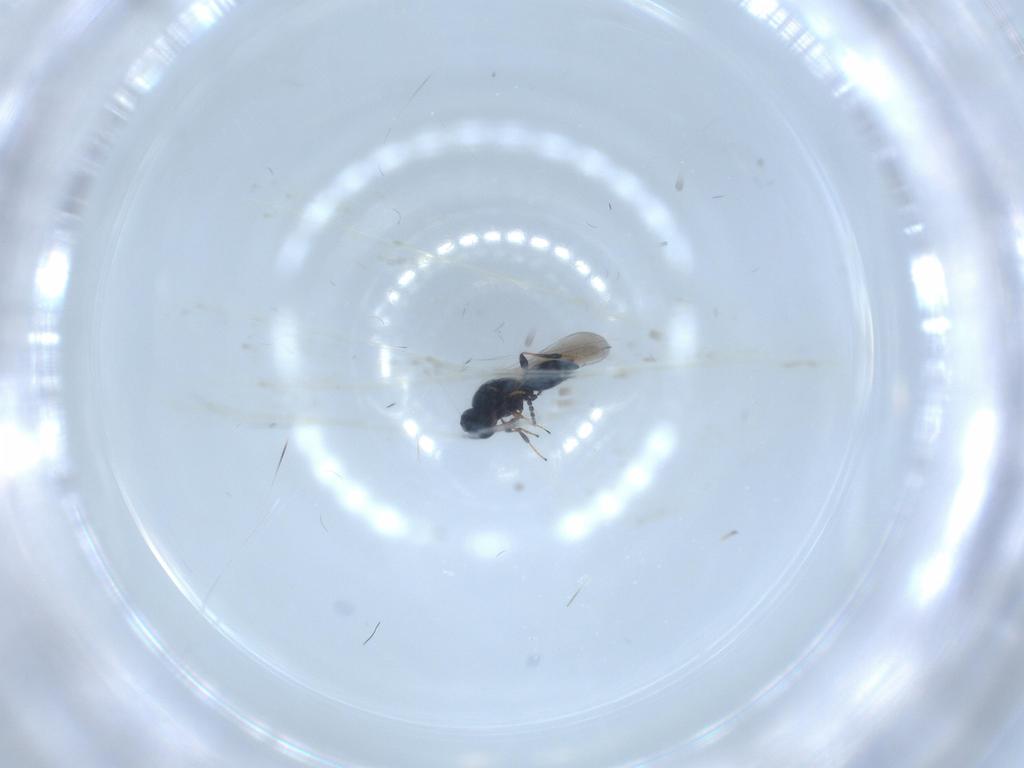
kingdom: Animalia
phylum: Arthropoda
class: Insecta
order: Hymenoptera
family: Platygastridae
